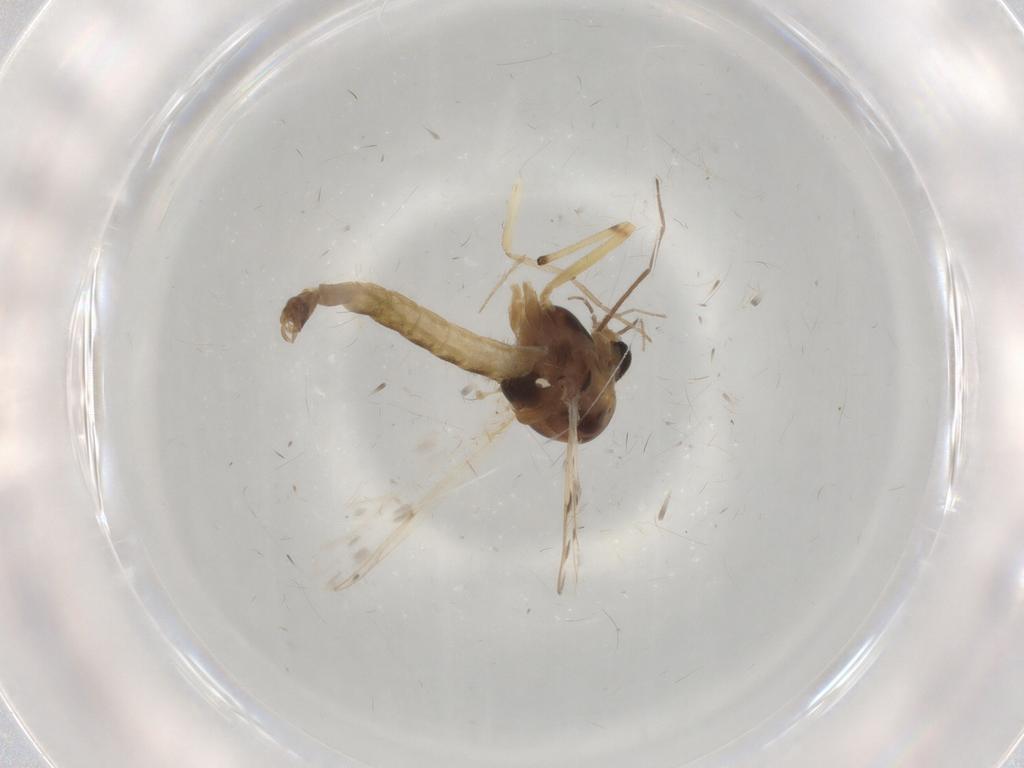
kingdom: Animalia
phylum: Arthropoda
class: Insecta
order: Diptera
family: Chironomidae
